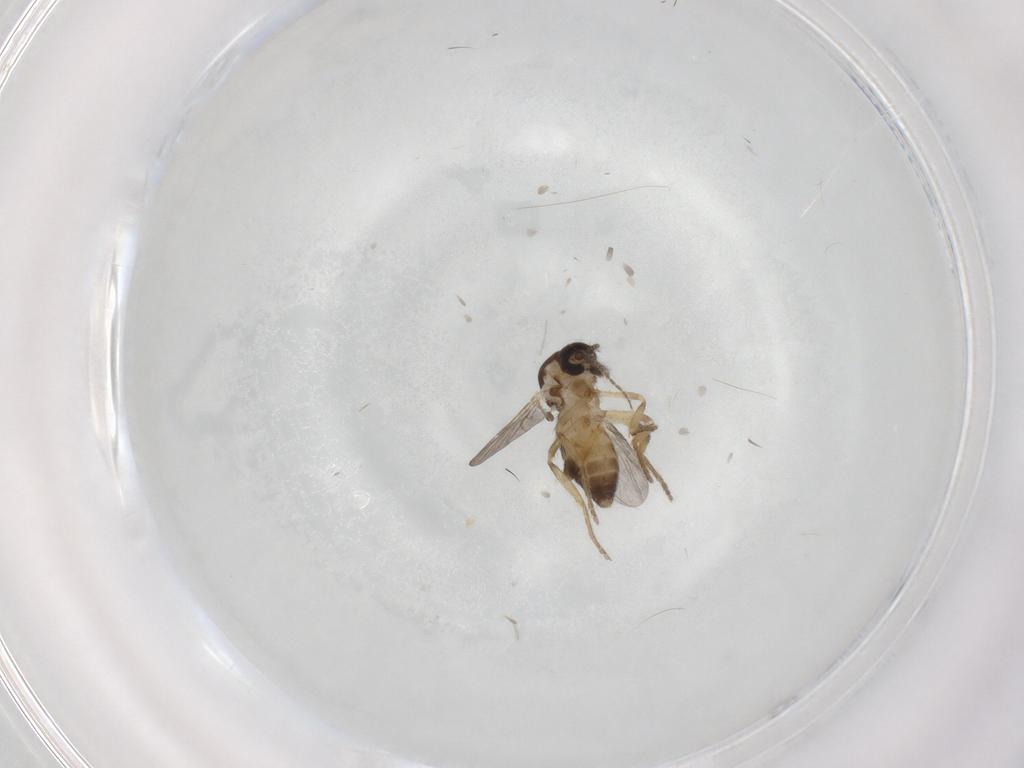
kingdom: Animalia
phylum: Arthropoda
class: Insecta
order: Diptera
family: Ceratopogonidae
